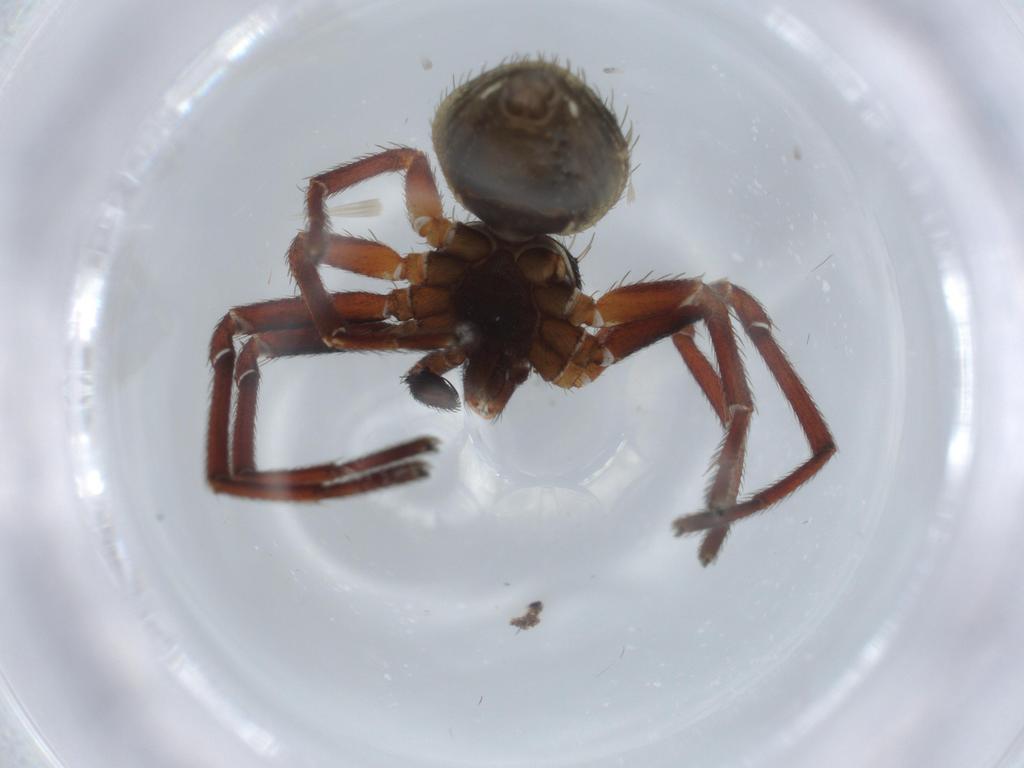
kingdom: Animalia
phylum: Arthropoda
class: Arachnida
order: Araneae
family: Thomisidae
